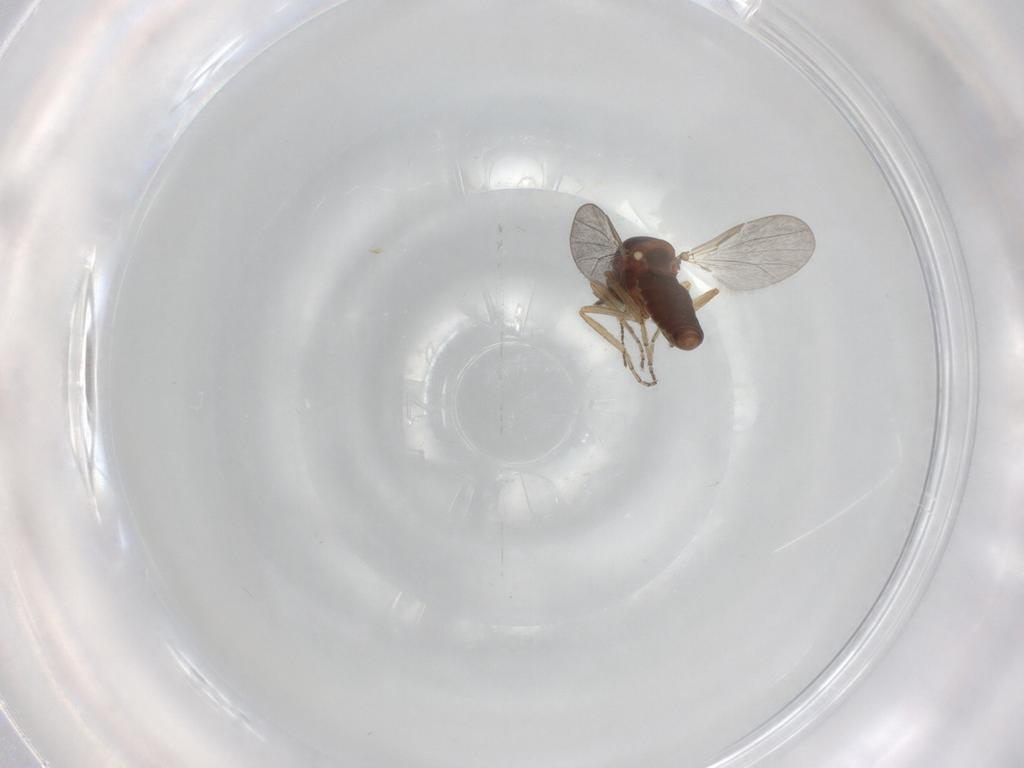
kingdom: Animalia
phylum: Arthropoda
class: Insecta
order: Diptera
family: Ceratopogonidae
